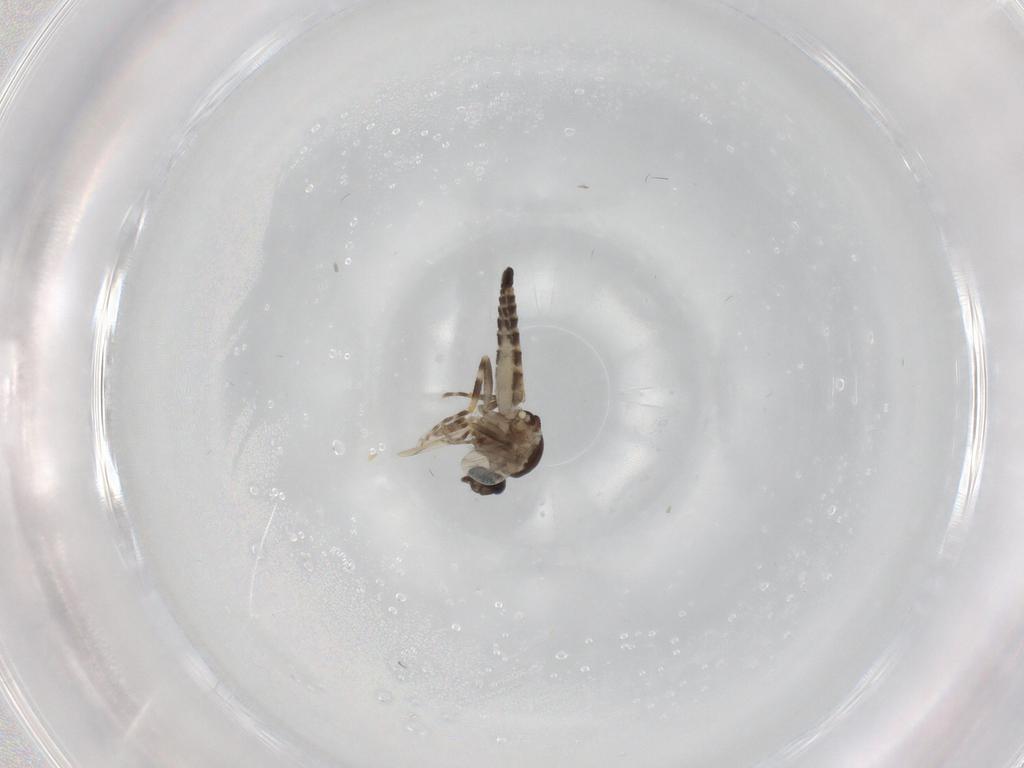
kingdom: Animalia
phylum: Arthropoda
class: Insecta
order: Diptera
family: Ceratopogonidae
